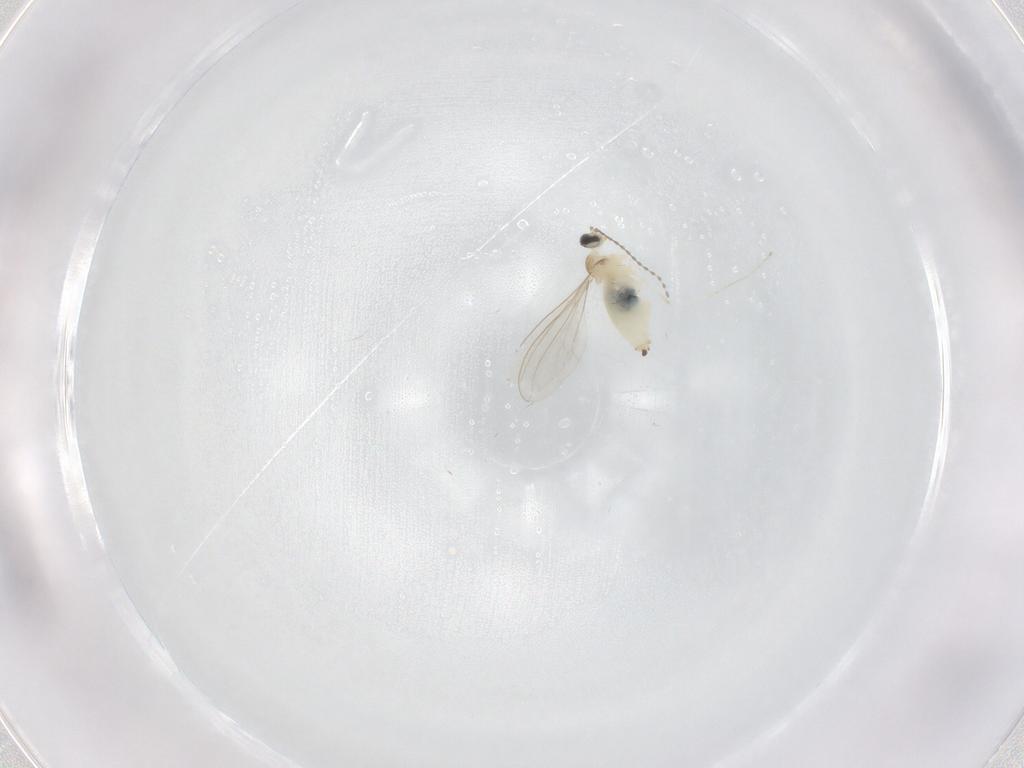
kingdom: Animalia
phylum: Arthropoda
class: Insecta
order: Diptera
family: Cecidomyiidae
